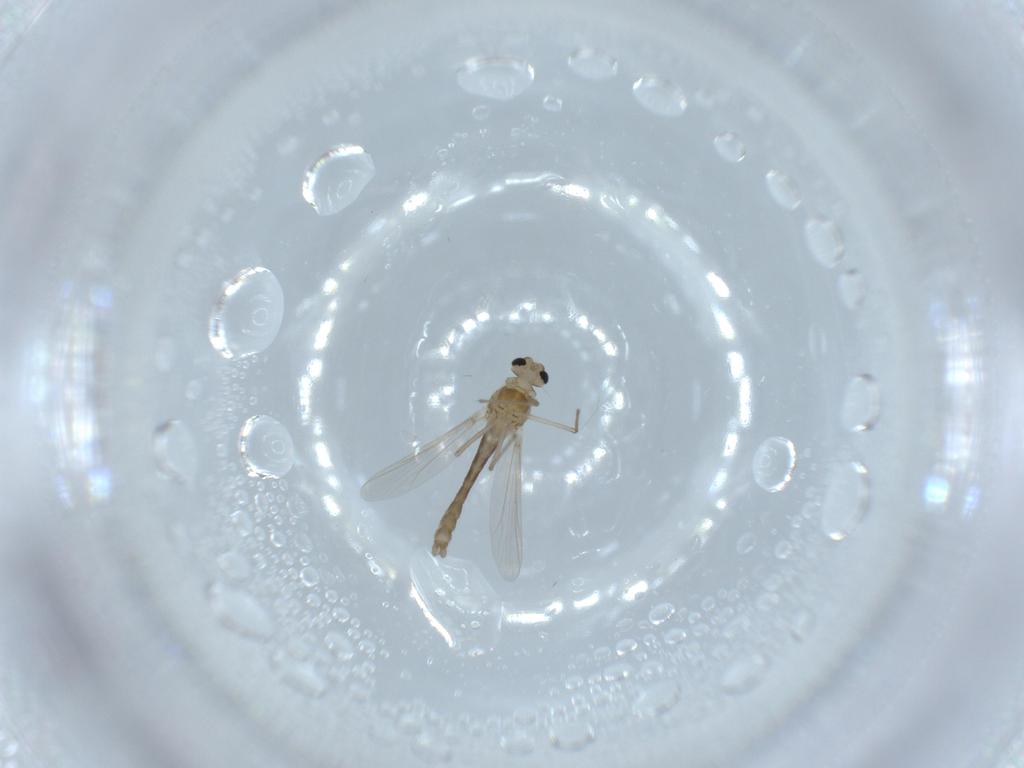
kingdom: Animalia
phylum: Arthropoda
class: Insecta
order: Diptera
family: Chironomidae
